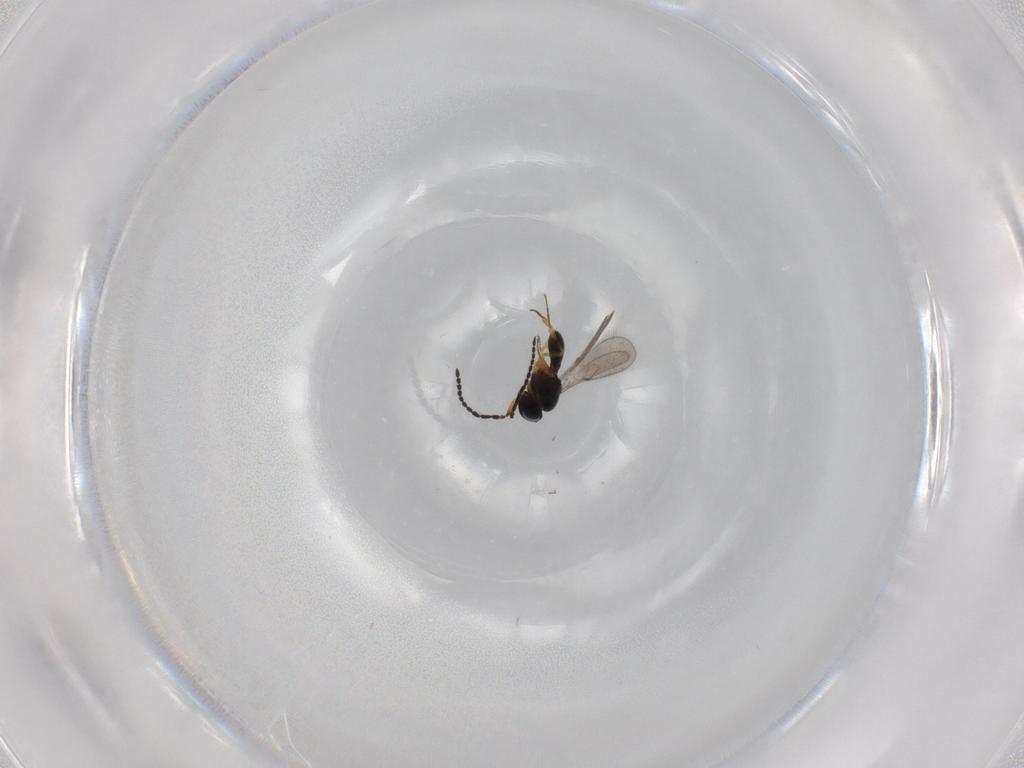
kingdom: Animalia
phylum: Arthropoda
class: Insecta
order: Hymenoptera
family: Scelionidae
